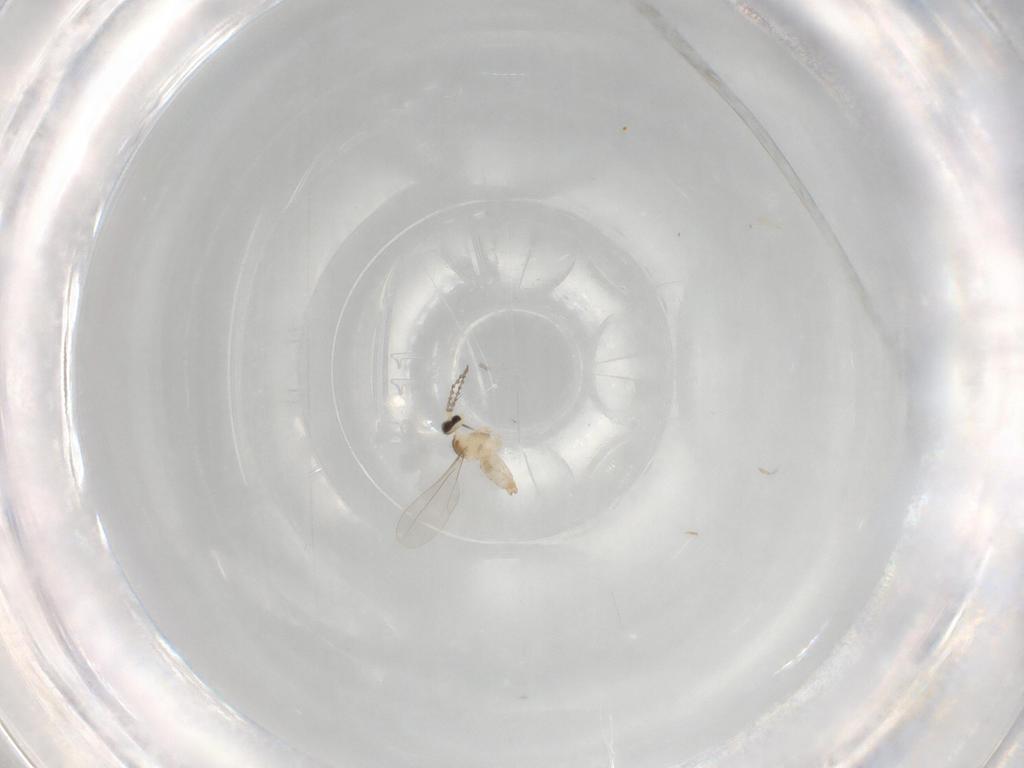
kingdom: Animalia
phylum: Arthropoda
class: Insecta
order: Diptera
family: Cecidomyiidae
